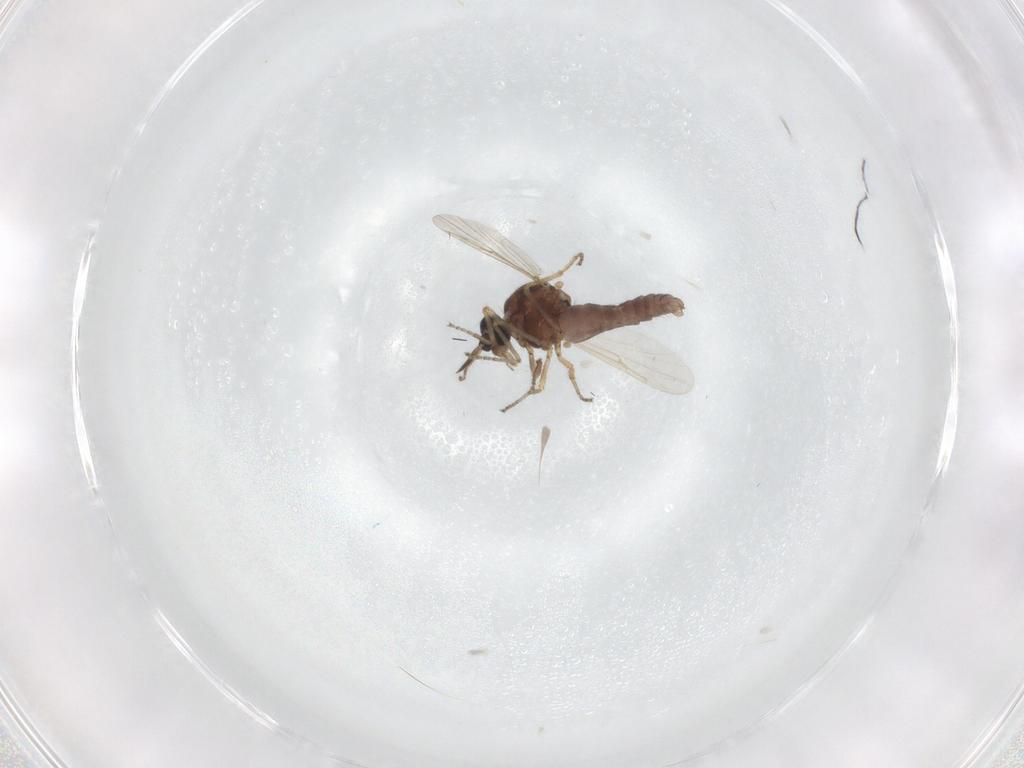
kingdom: Animalia
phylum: Arthropoda
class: Insecta
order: Diptera
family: Ceratopogonidae
